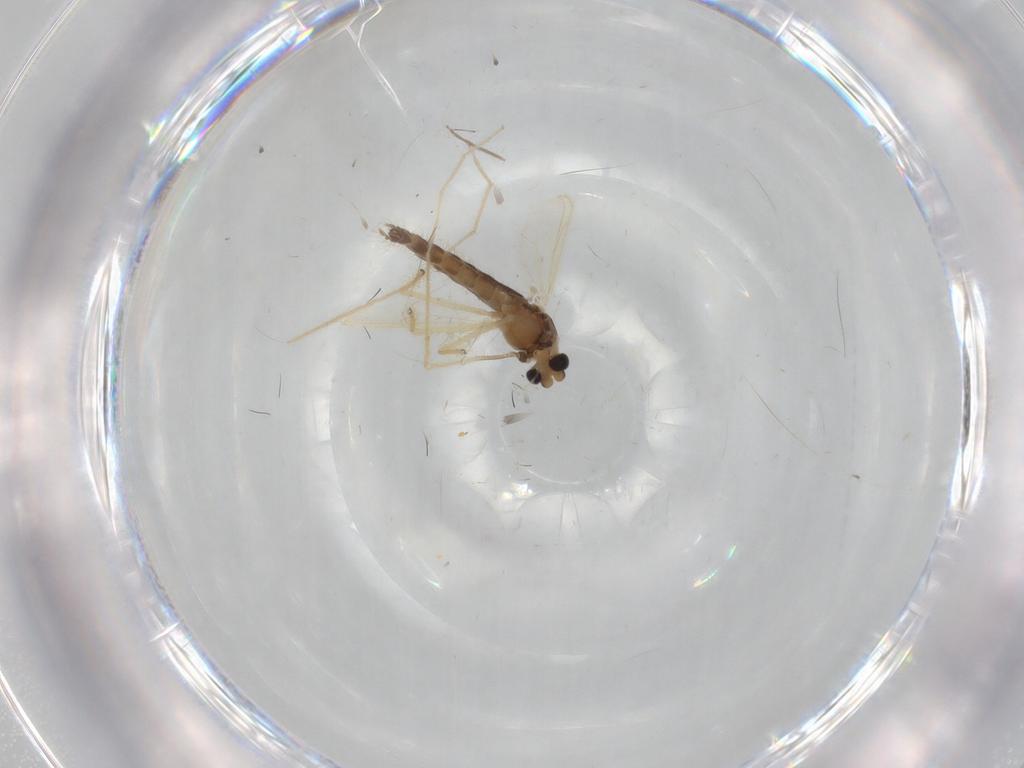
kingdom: Animalia
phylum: Arthropoda
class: Insecta
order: Diptera
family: Chironomidae
